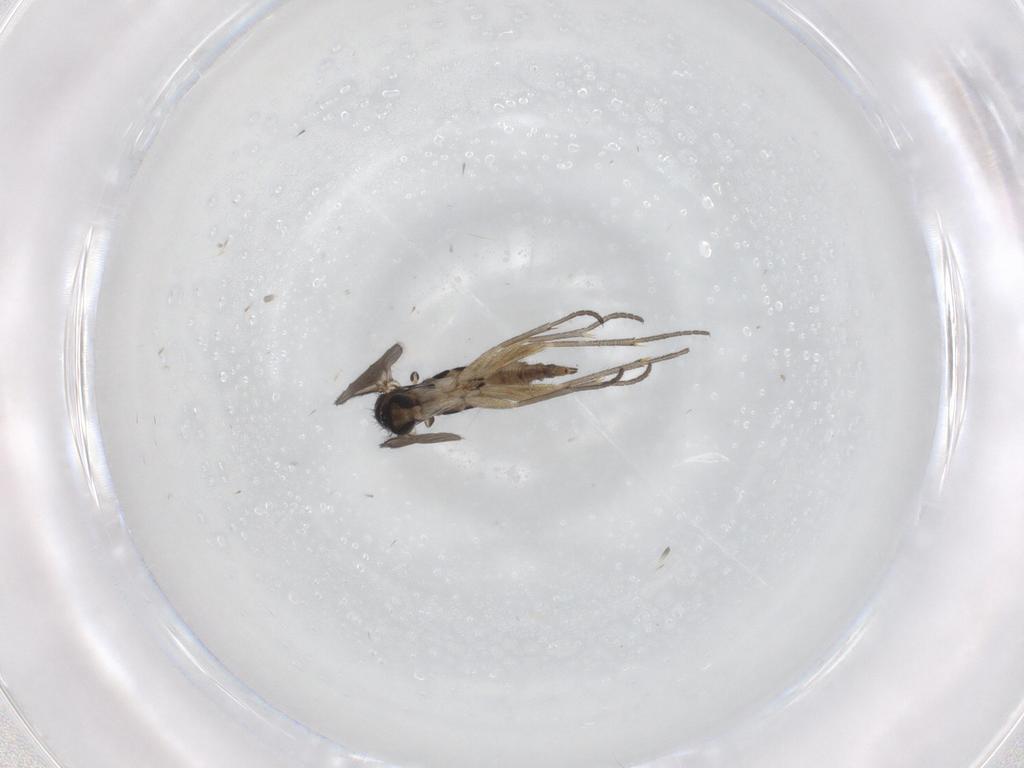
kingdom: Animalia
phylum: Arthropoda
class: Insecta
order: Diptera
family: Sciaridae
